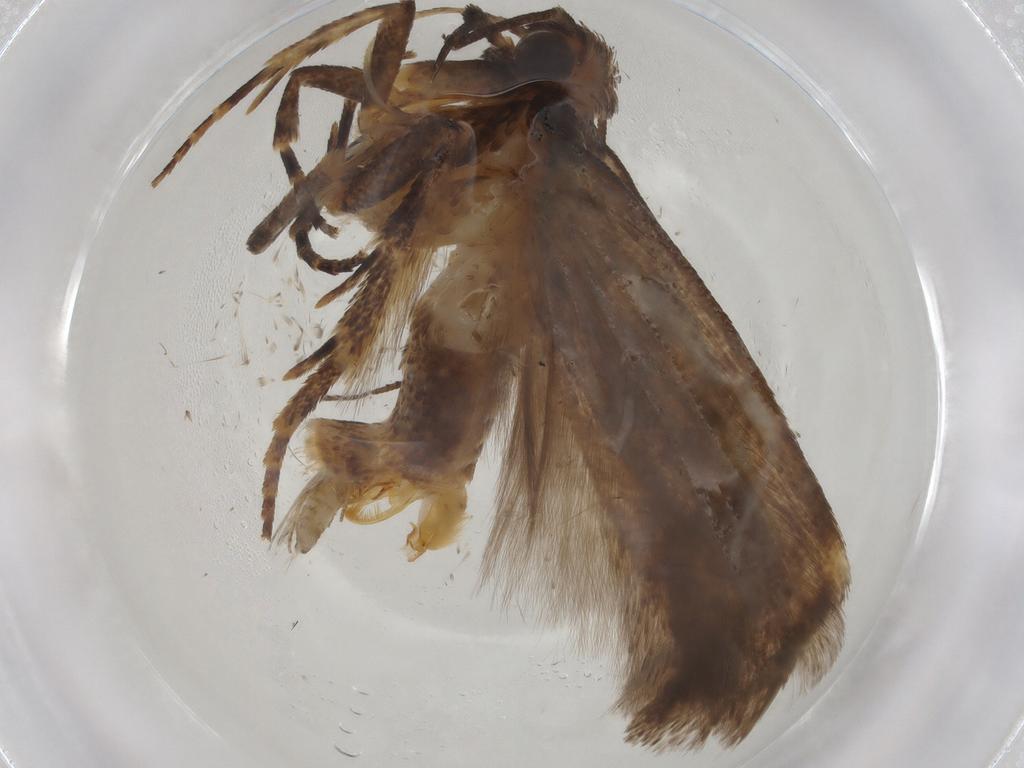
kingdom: Animalia
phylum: Arthropoda
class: Insecta
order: Lepidoptera
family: Gelechiidae
